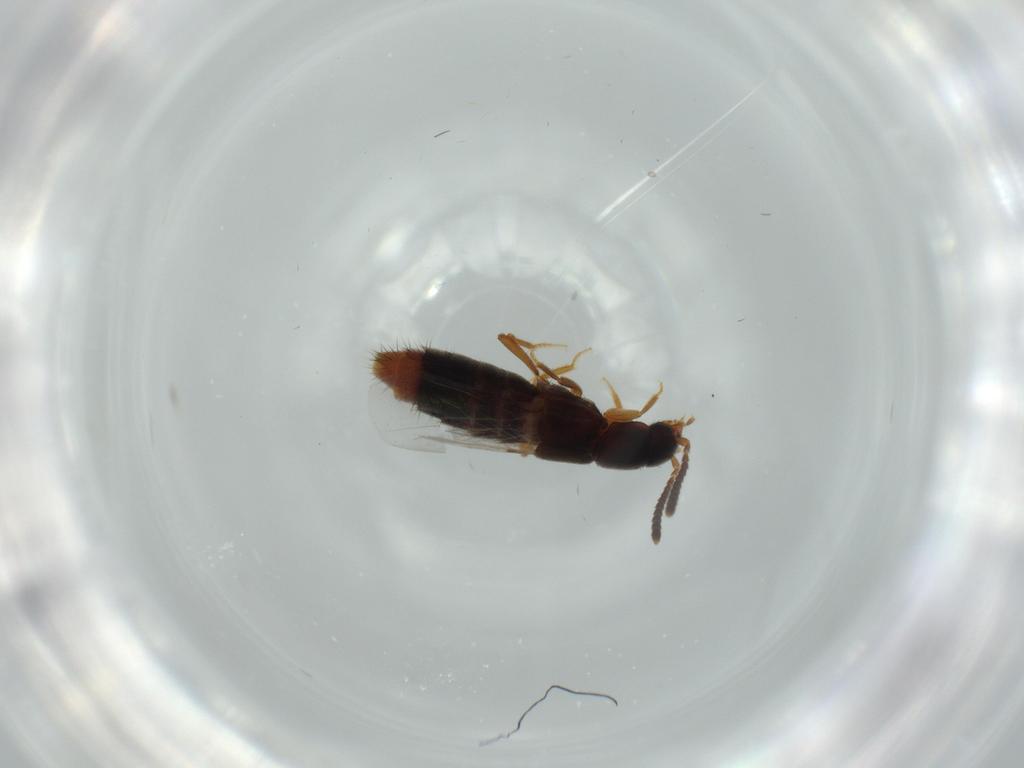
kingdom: Animalia
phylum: Arthropoda
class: Insecta
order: Coleoptera
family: Staphylinidae
